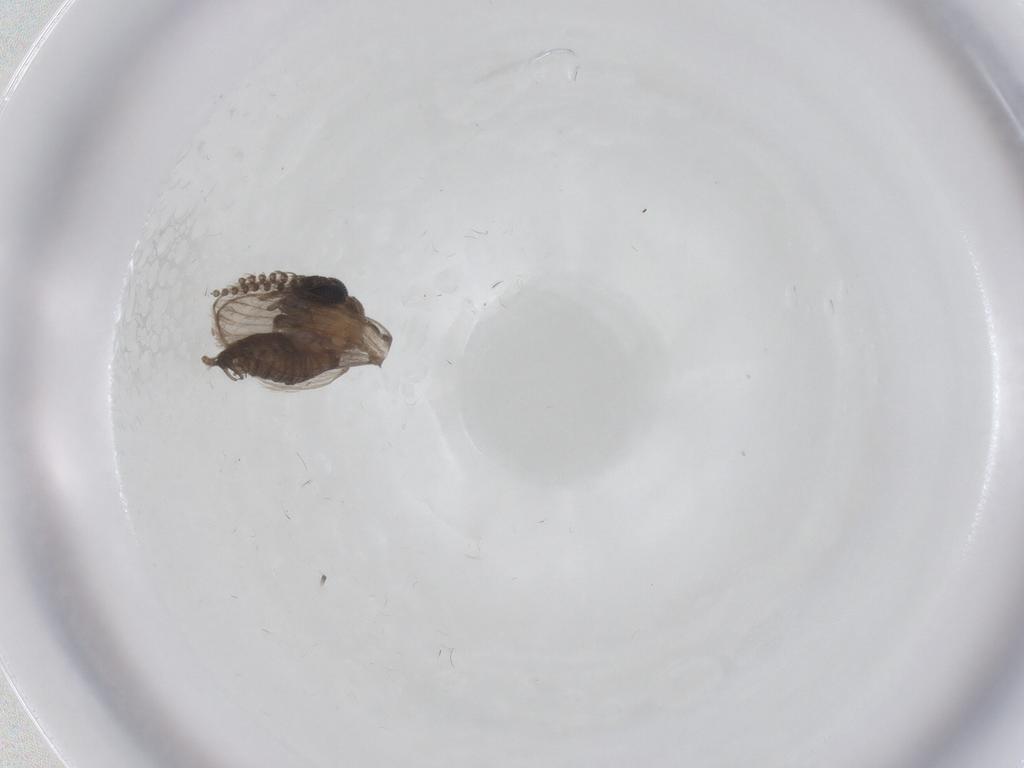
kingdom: Animalia
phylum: Arthropoda
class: Insecta
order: Diptera
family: Psychodidae
